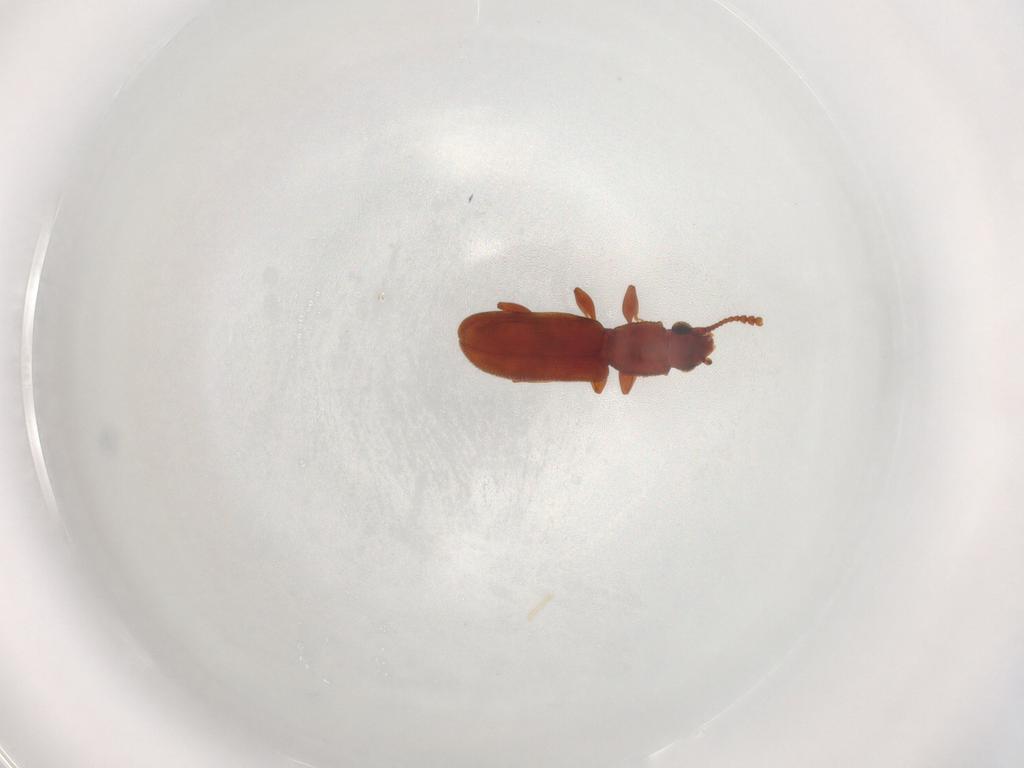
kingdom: Animalia
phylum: Arthropoda
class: Insecta
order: Coleoptera
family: Silvanidae
